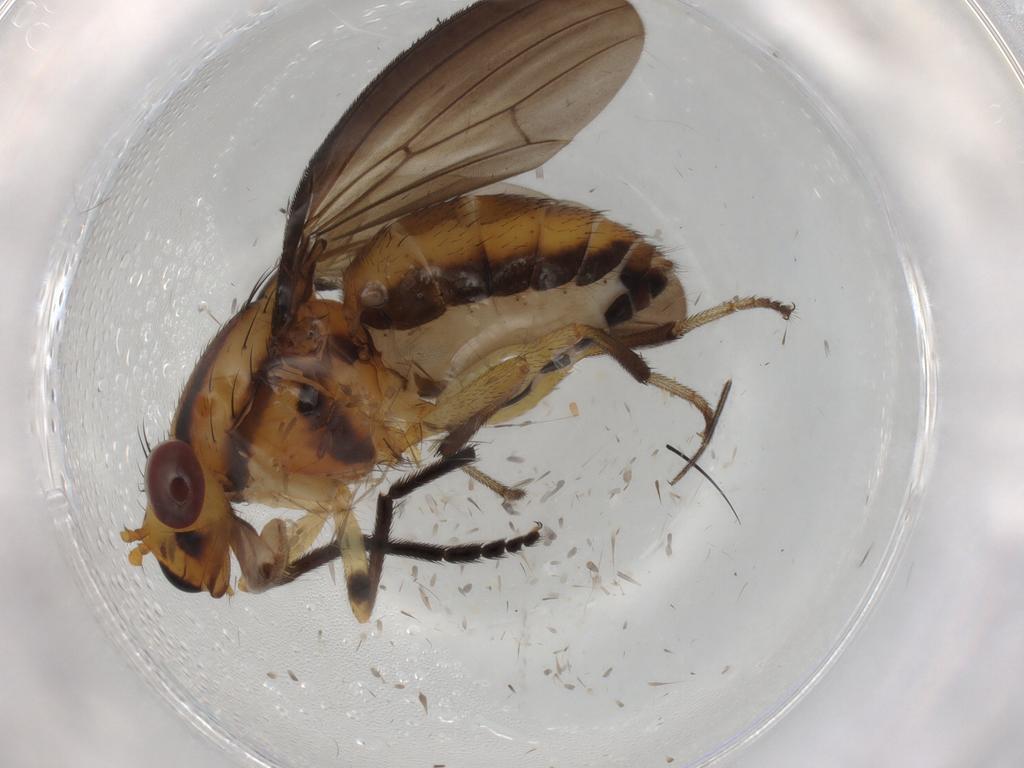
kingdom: Animalia
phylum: Arthropoda
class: Insecta
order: Diptera
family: Lauxaniidae
